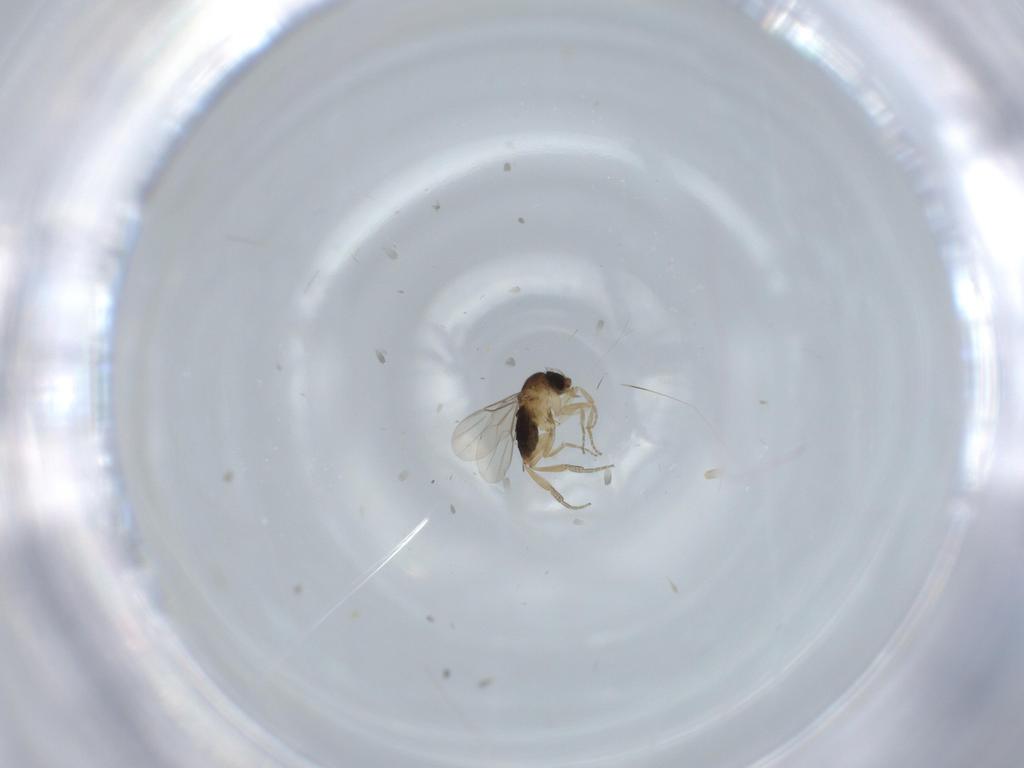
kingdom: Animalia
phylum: Arthropoda
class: Insecta
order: Diptera
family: Phoridae
